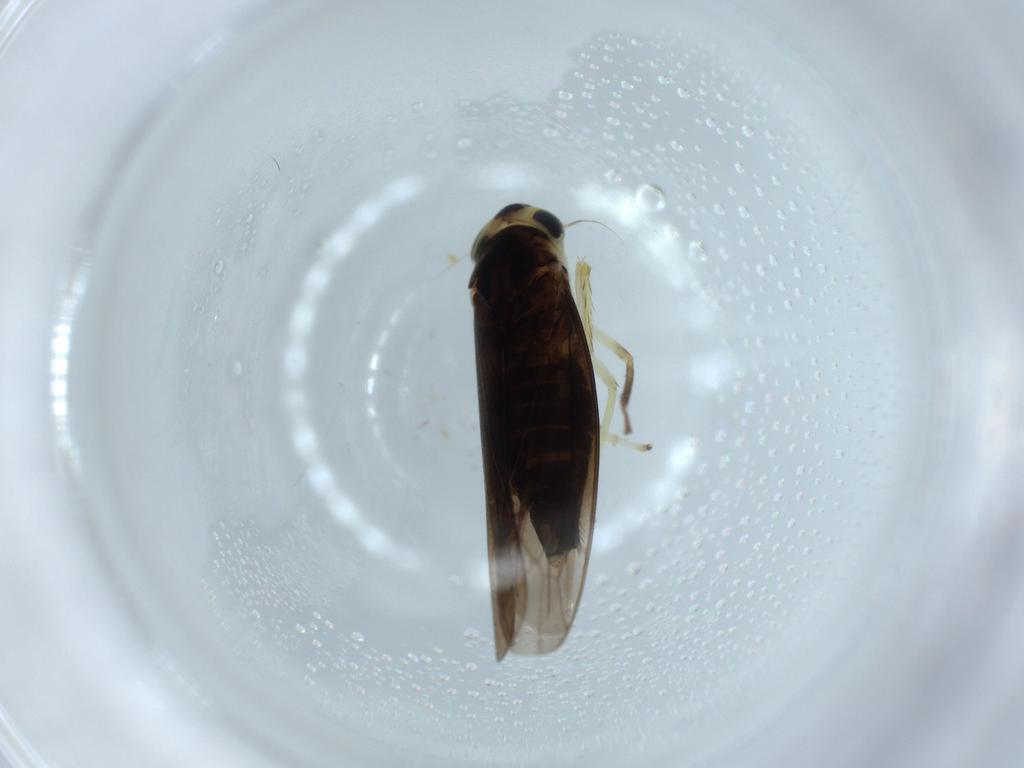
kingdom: Animalia
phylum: Arthropoda
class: Insecta
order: Hemiptera
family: Cicadellidae
